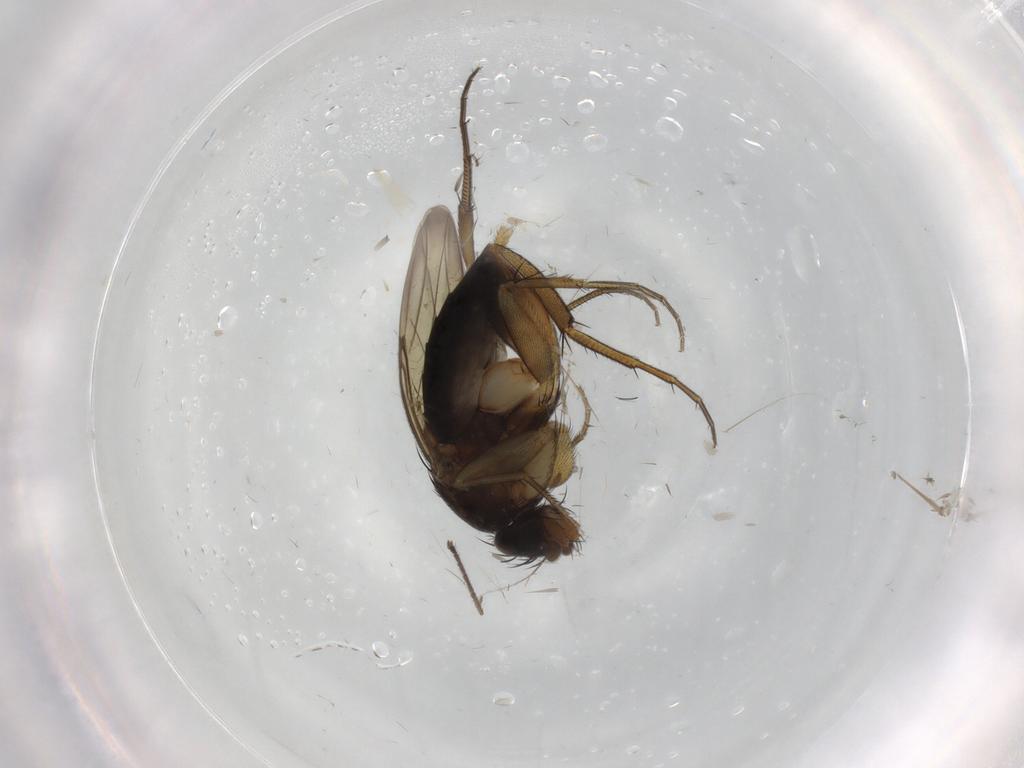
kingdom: Animalia
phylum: Arthropoda
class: Insecta
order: Diptera
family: Phoridae
